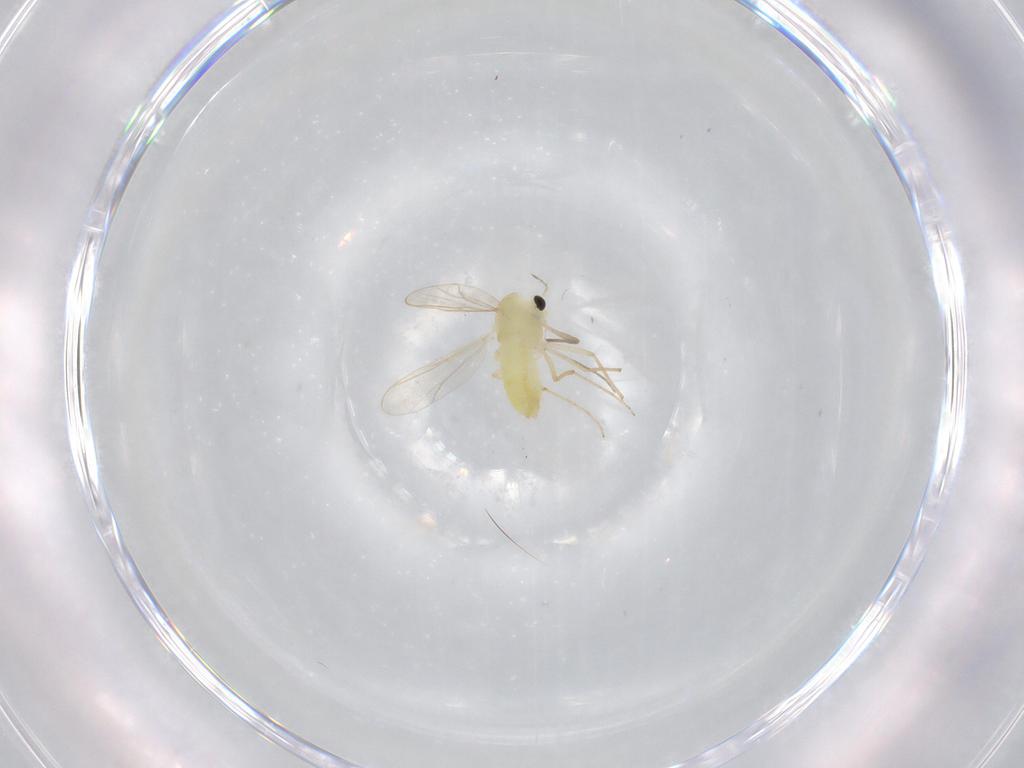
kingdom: Animalia
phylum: Arthropoda
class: Insecta
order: Diptera
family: Chironomidae
